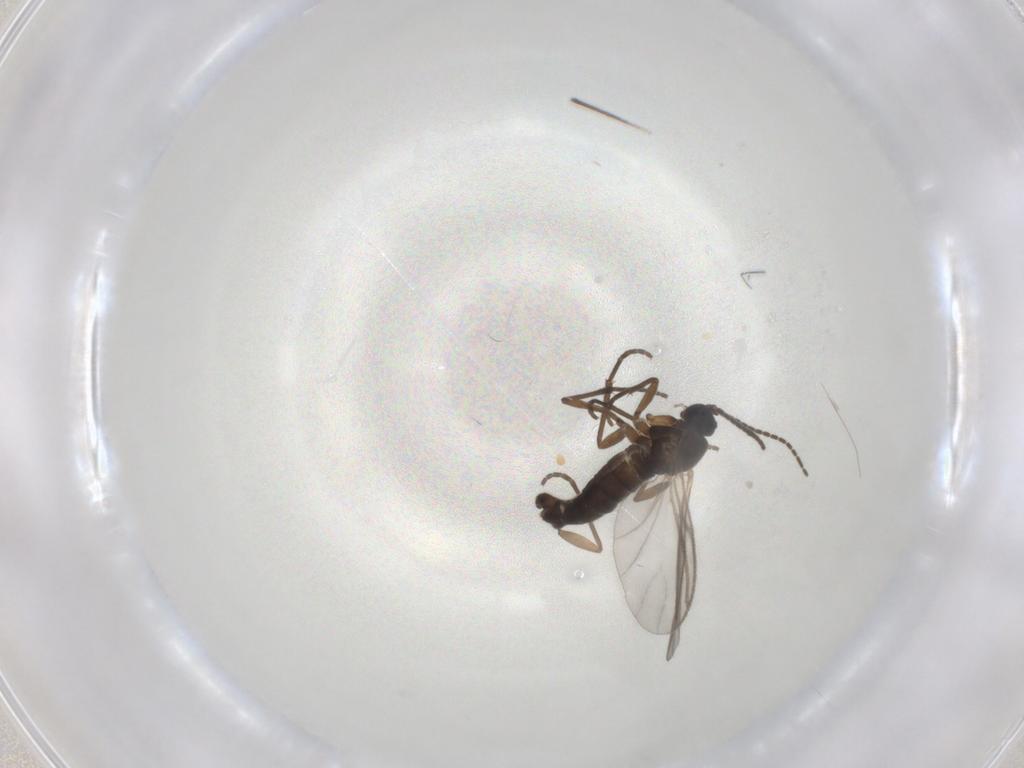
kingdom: Animalia
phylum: Arthropoda
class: Insecta
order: Diptera
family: Sciaridae
